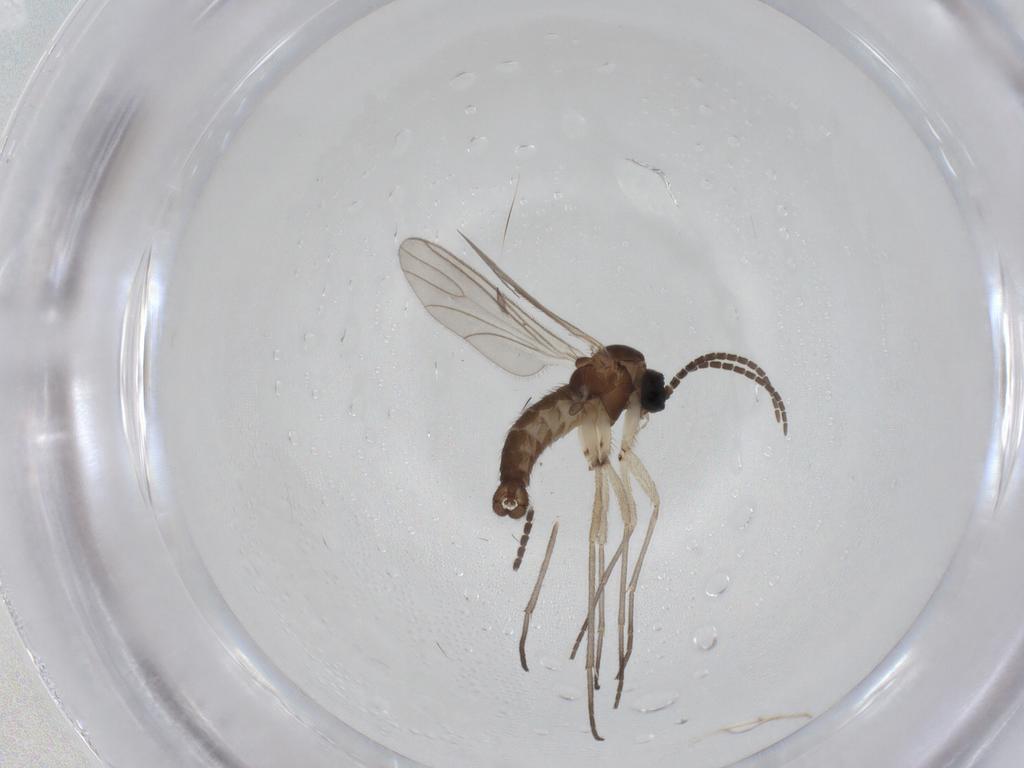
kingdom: Animalia
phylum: Arthropoda
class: Insecta
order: Diptera
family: Sciaridae
